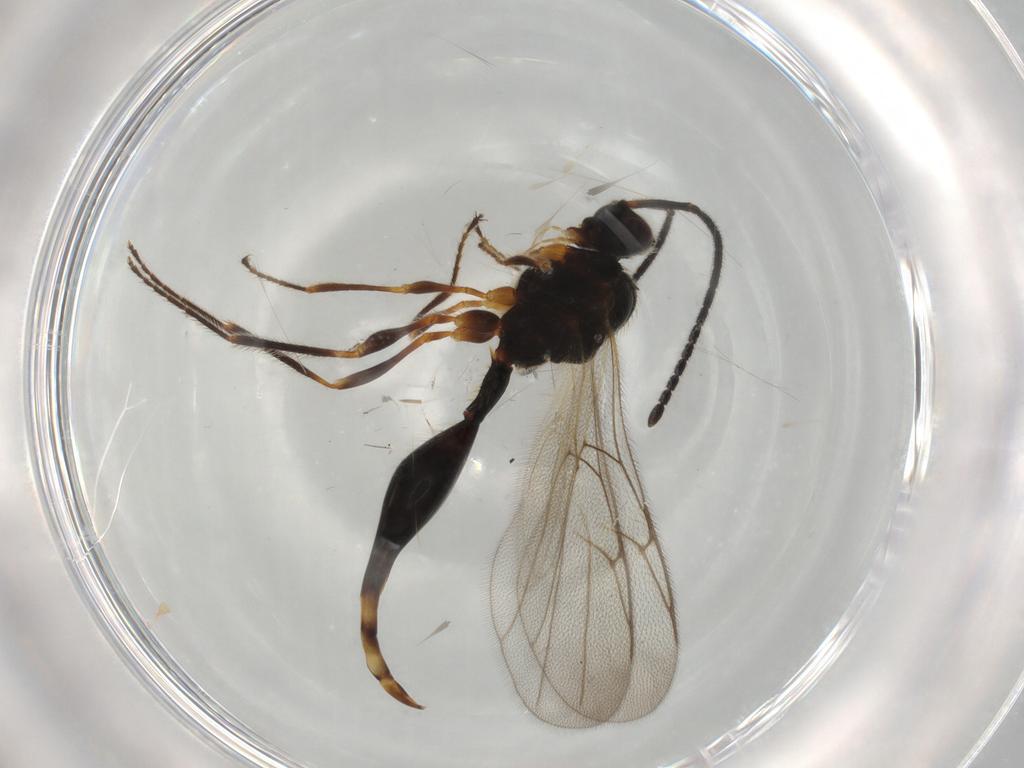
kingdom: Animalia
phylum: Arthropoda
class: Insecta
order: Hymenoptera
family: Diapriidae
